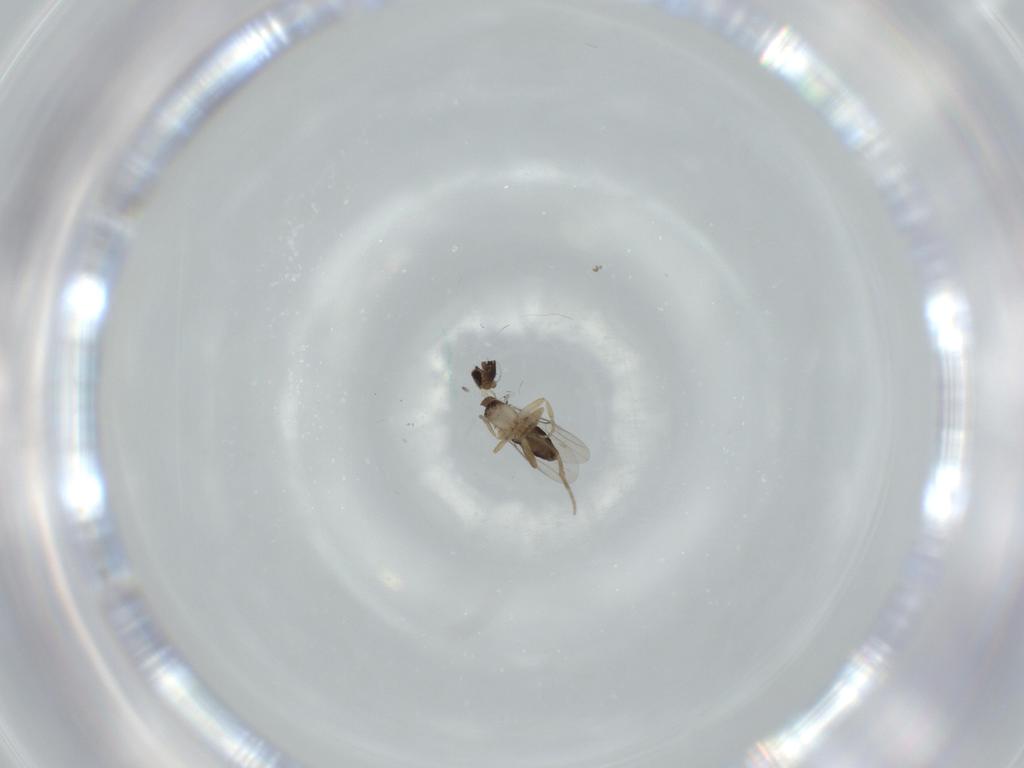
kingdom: Animalia
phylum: Arthropoda
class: Insecta
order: Diptera
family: Phoridae
